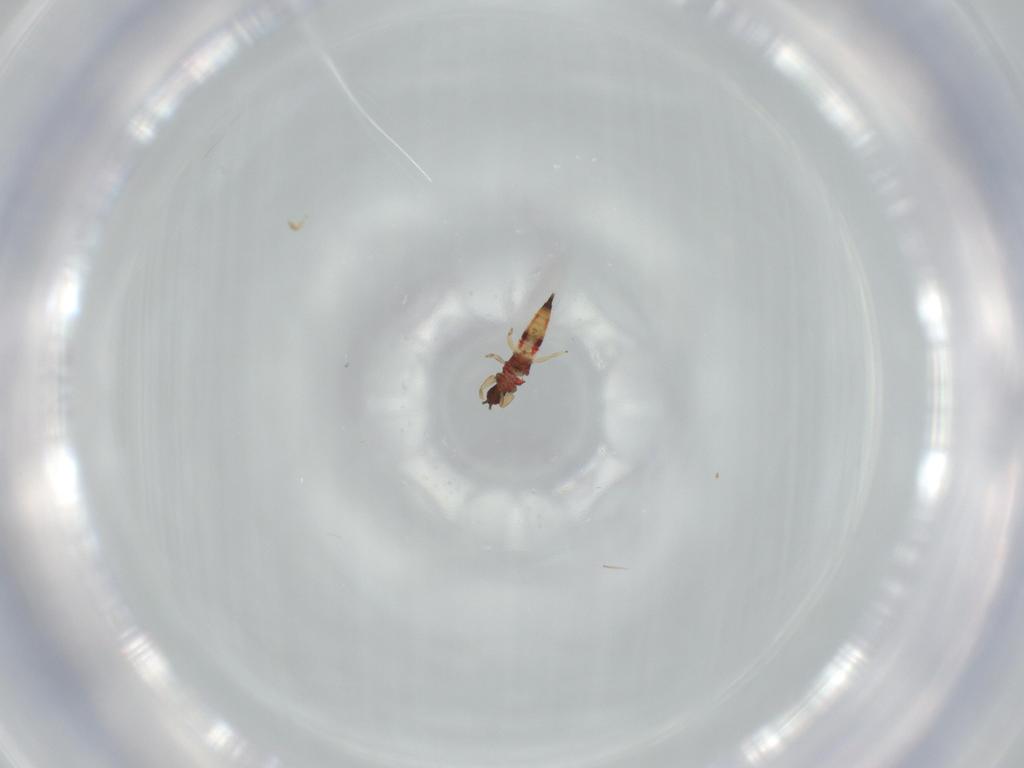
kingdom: Animalia
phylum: Arthropoda
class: Insecta
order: Thysanoptera
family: Phlaeothripidae
